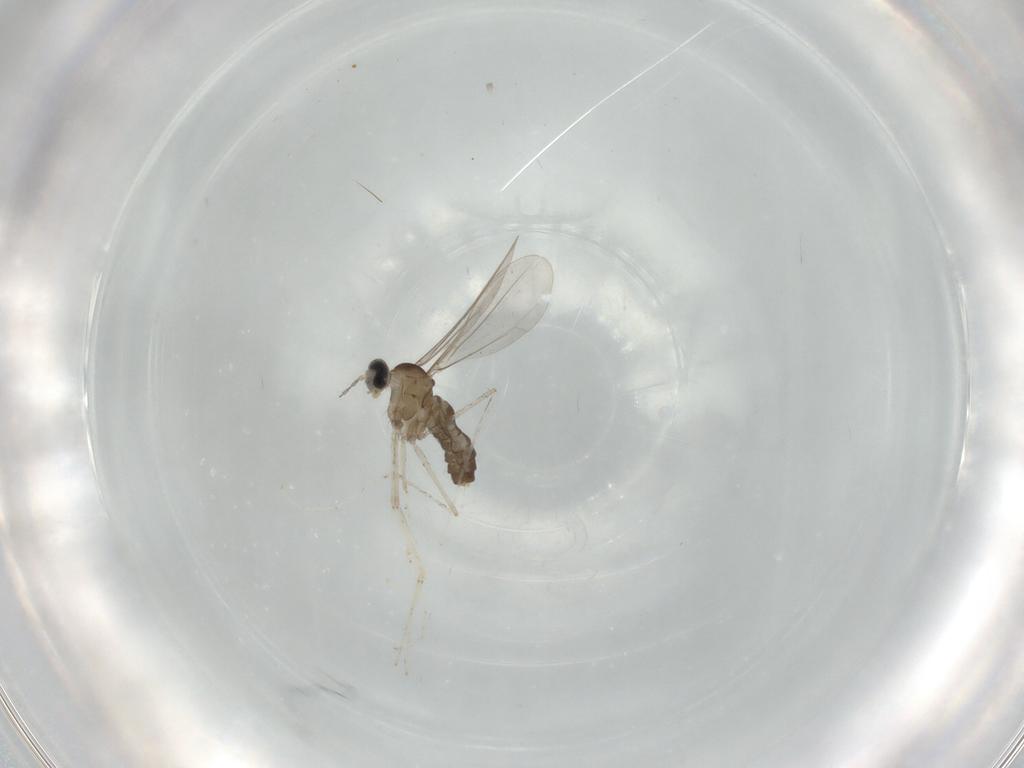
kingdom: Animalia
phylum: Arthropoda
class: Insecta
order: Diptera
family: Cecidomyiidae
